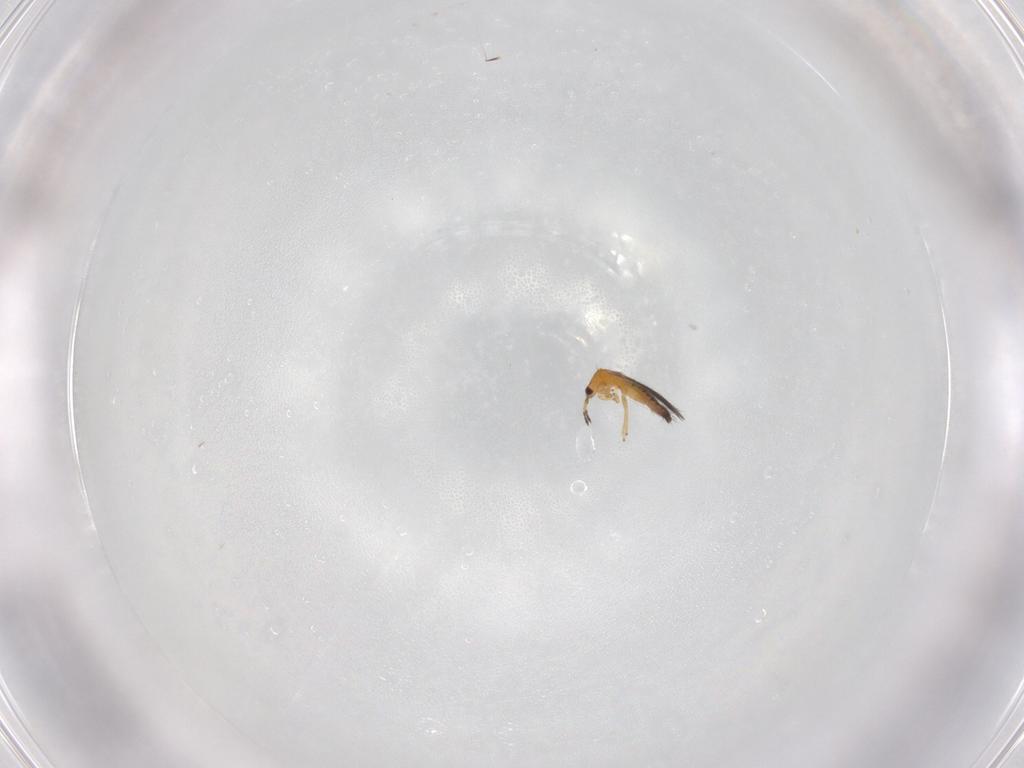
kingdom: Animalia
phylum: Arthropoda
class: Insecta
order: Thysanoptera
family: Thripidae
